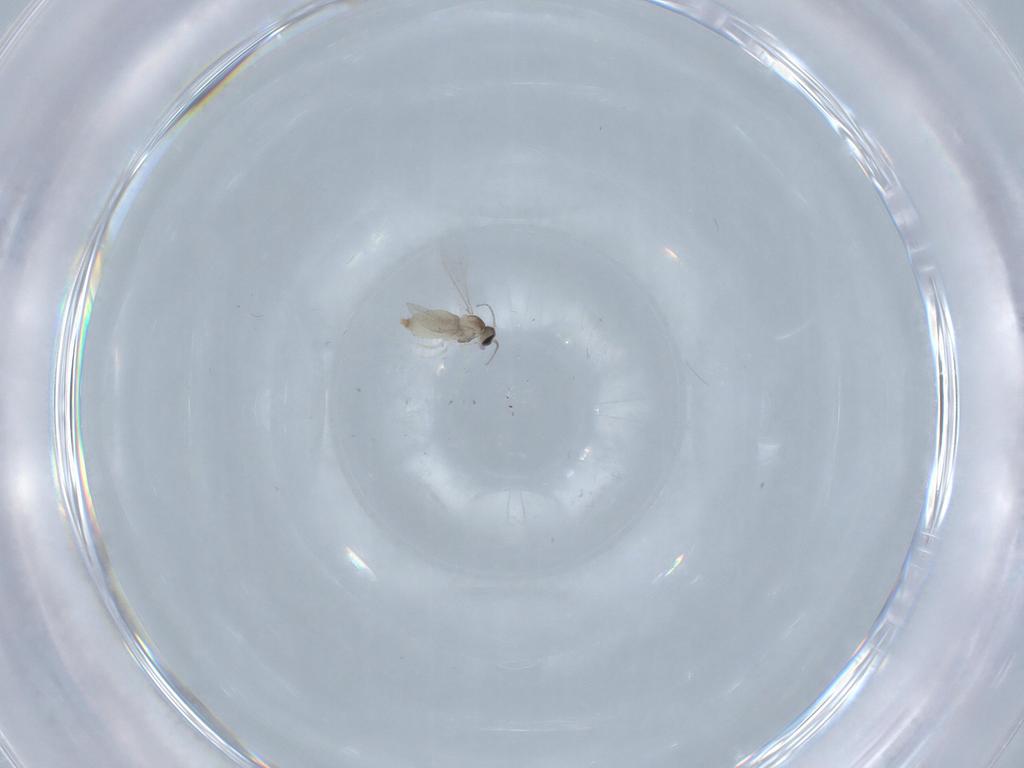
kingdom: Animalia
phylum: Arthropoda
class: Insecta
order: Diptera
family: Cecidomyiidae
